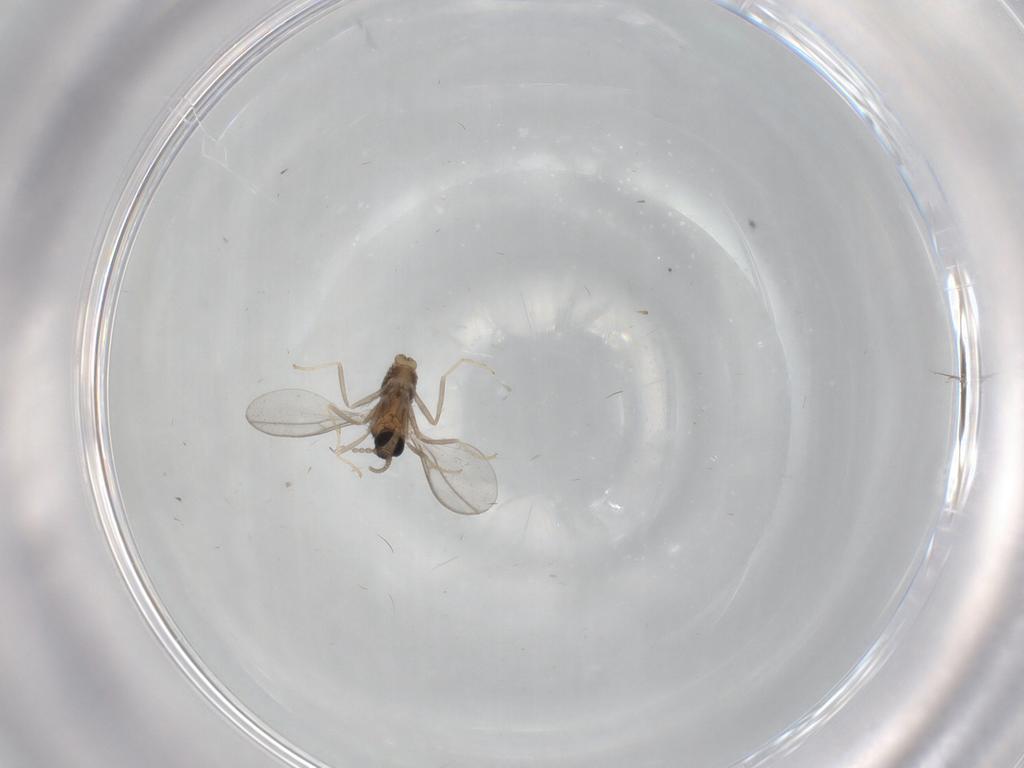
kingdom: Animalia
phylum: Arthropoda
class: Insecta
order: Diptera
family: Cecidomyiidae
